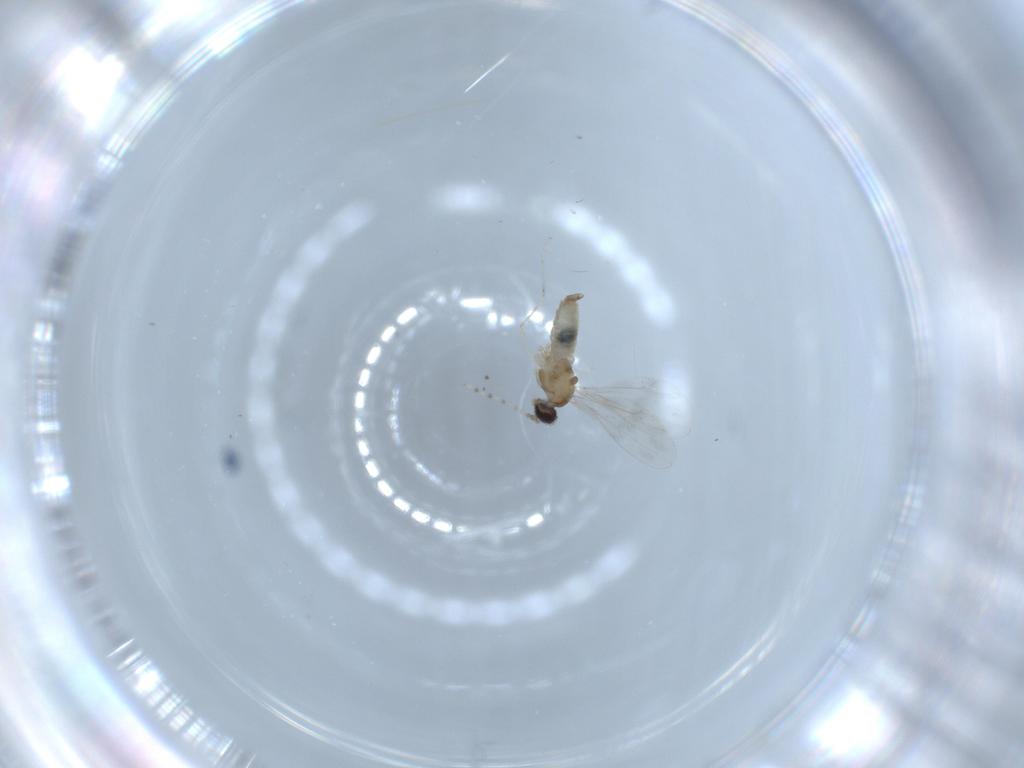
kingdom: Animalia
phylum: Arthropoda
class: Insecta
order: Diptera
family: Cecidomyiidae
